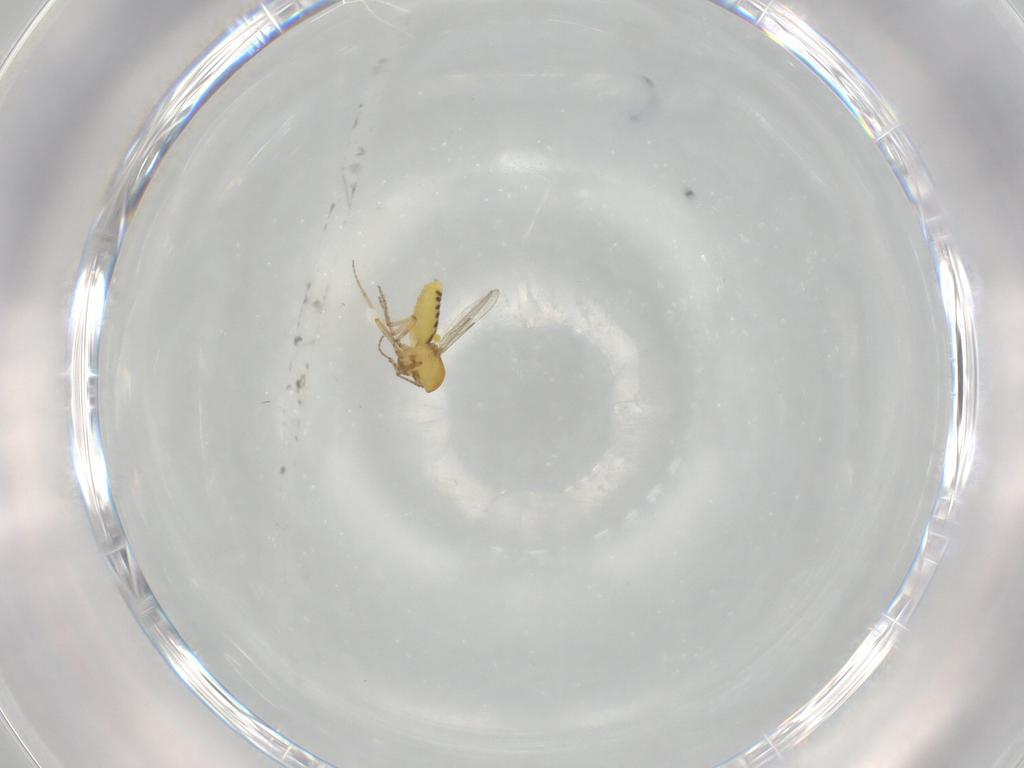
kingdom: Animalia
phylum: Arthropoda
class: Insecta
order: Diptera
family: Ceratopogonidae
